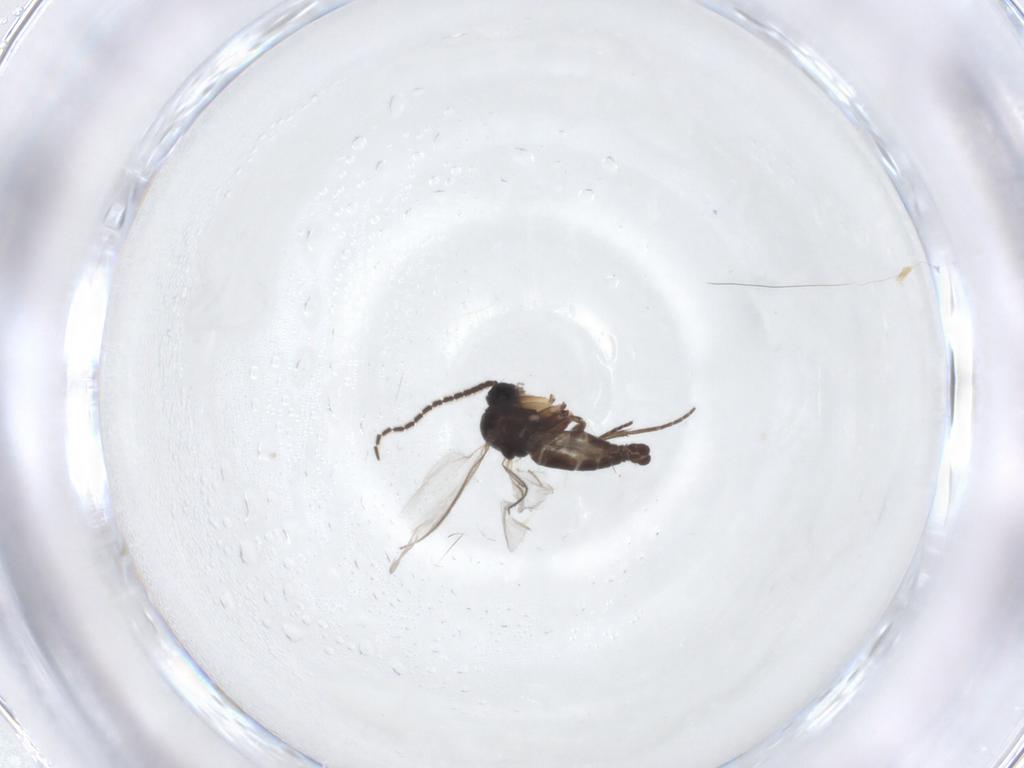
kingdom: Animalia
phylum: Arthropoda
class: Insecta
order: Diptera
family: Sciaridae
